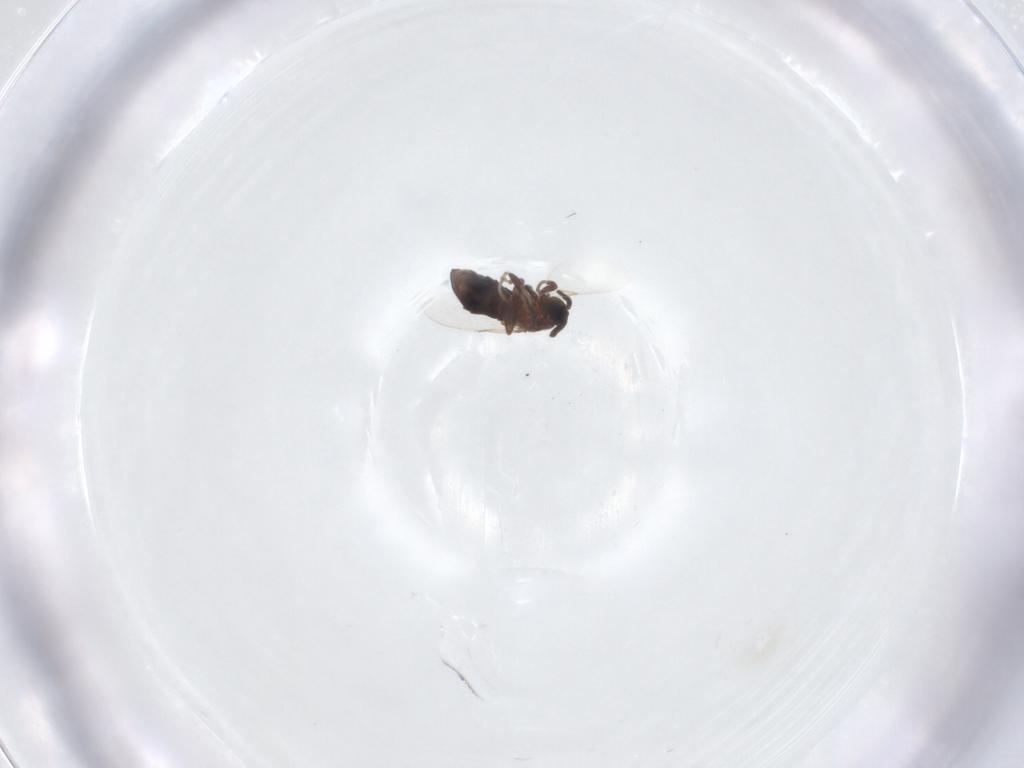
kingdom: Animalia
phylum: Arthropoda
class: Insecta
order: Diptera
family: Scatopsidae
